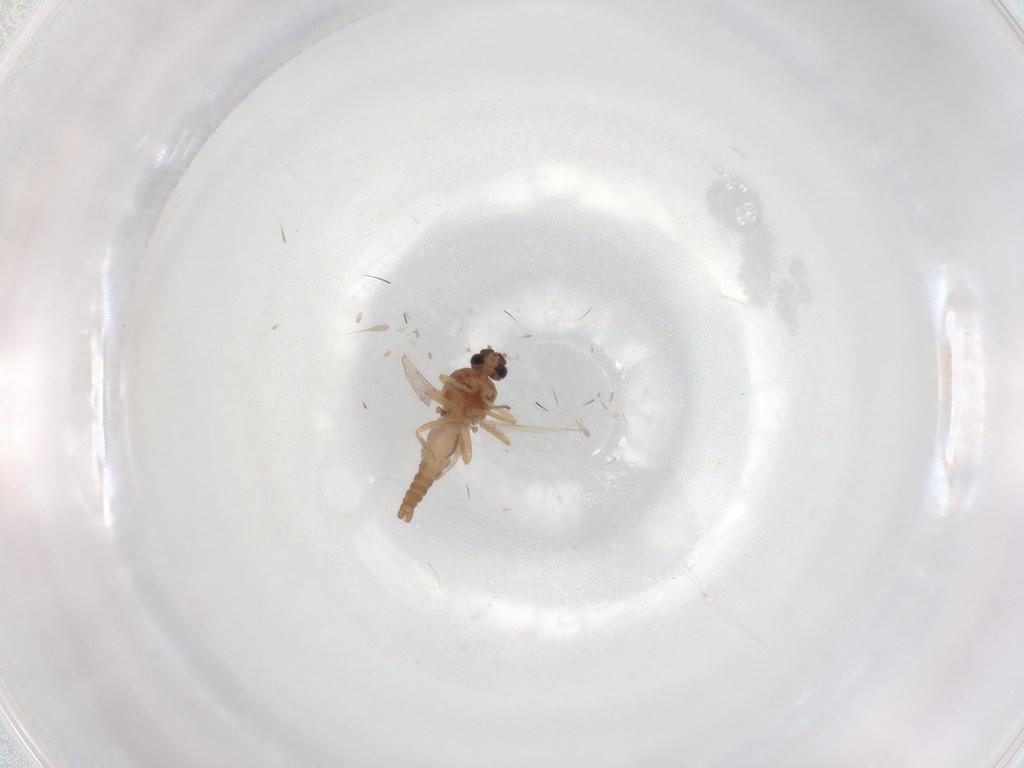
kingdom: Animalia
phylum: Arthropoda
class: Insecta
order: Diptera
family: Ceratopogonidae
